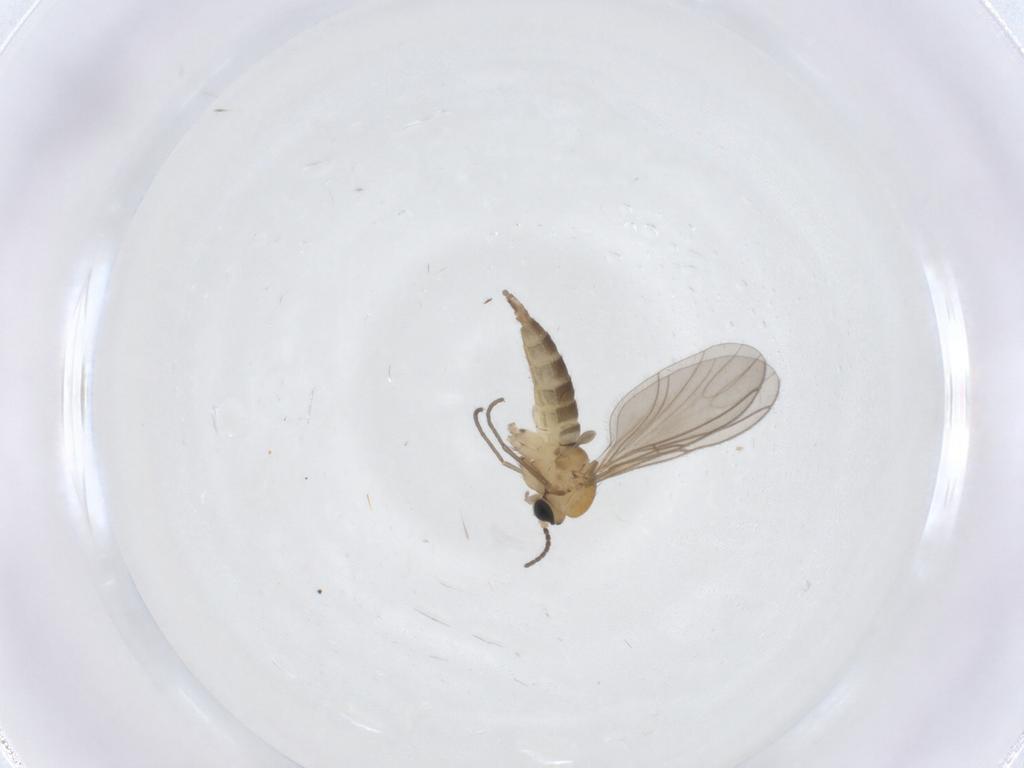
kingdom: Animalia
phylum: Arthropoda
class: Insecta
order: Diptera
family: Sciaridae
